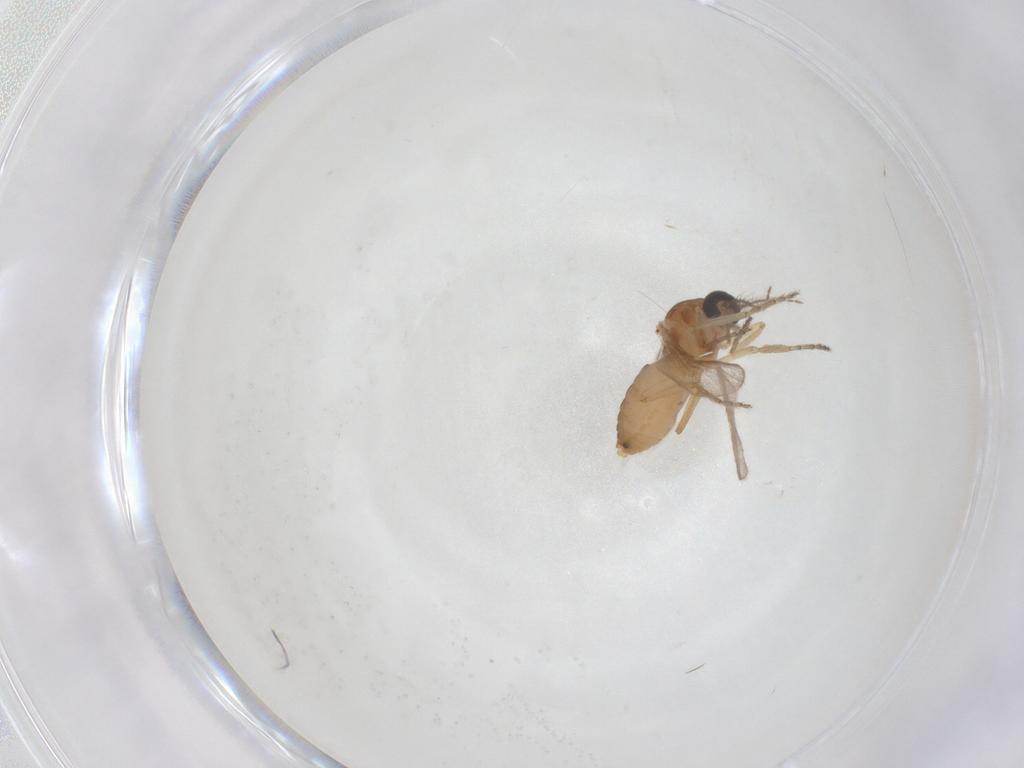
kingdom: Animalia
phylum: Arthropoda
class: Insecta
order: Diptera
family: Ceratopogonidae
